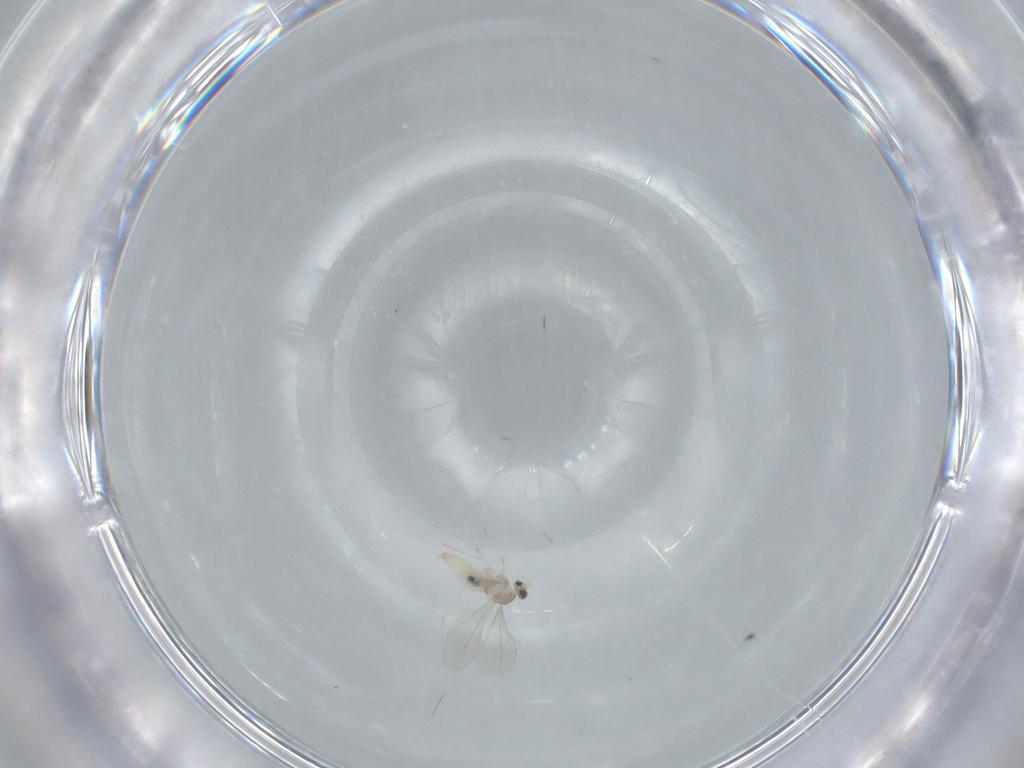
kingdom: Animalia
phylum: Arthropoda
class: Insecta
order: Diptera
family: Cecidomyiidae
